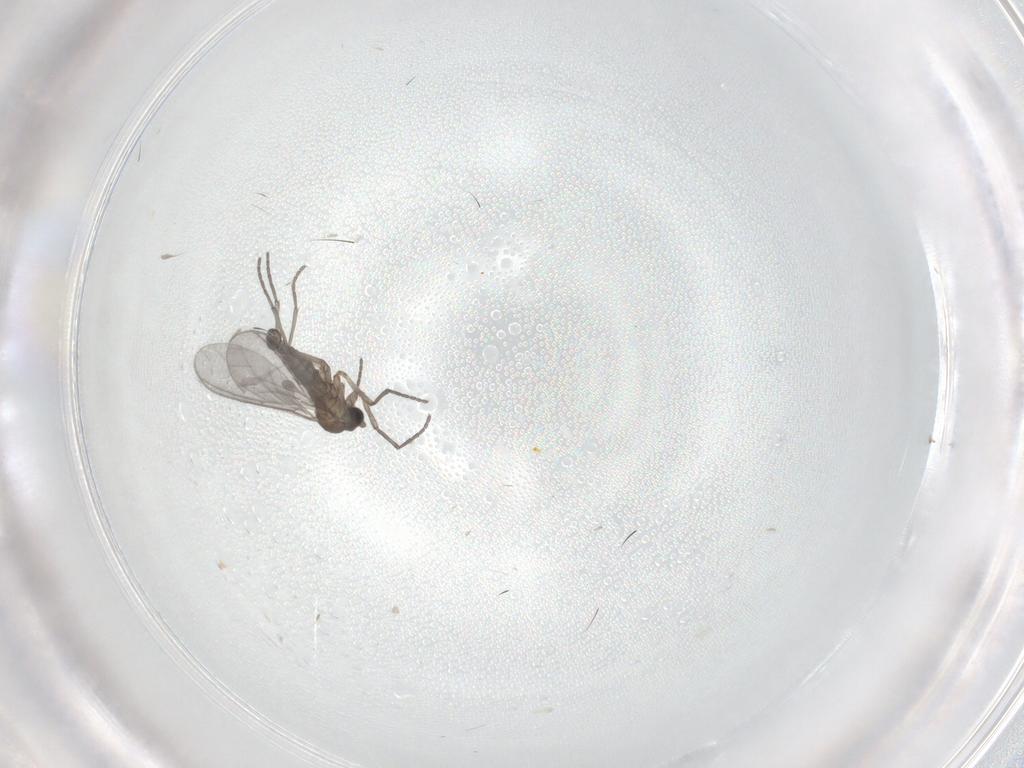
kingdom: Animalia
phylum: Arthropoda
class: Insecta
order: Diptera
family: Sciaridae
